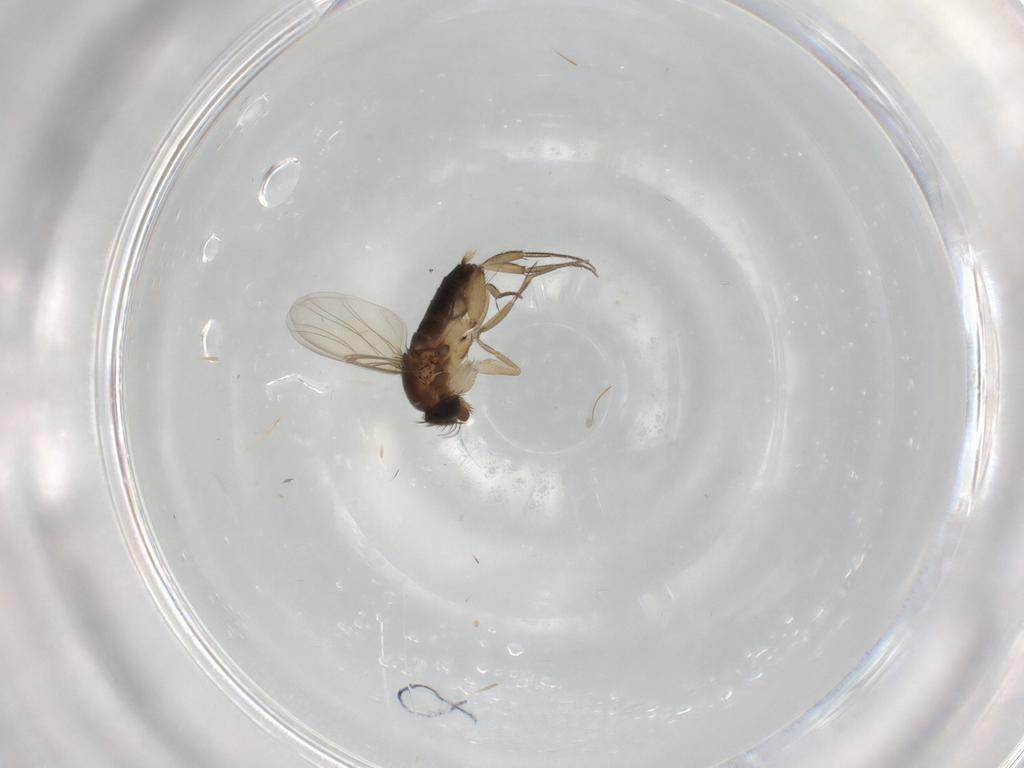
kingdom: Animalia
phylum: Arthropoda
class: Insecta
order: Diptera
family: Phoridae
